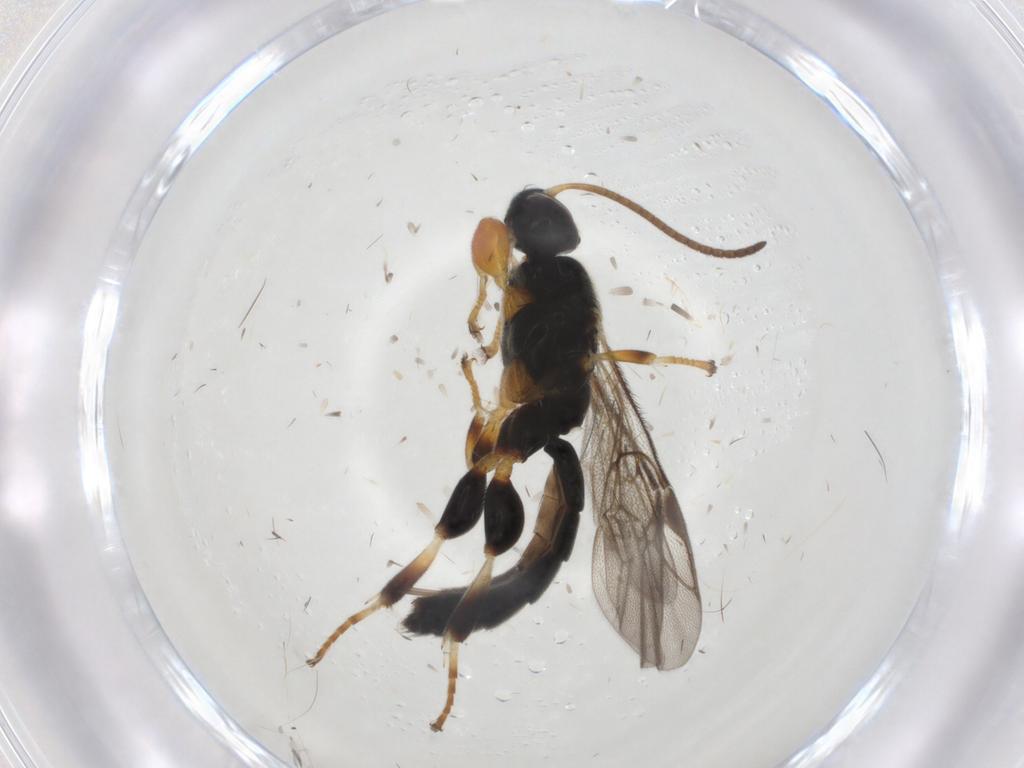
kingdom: Animalia
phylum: Arthropoda
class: Insecta
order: Hymenoptera
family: Ichneumonidae
